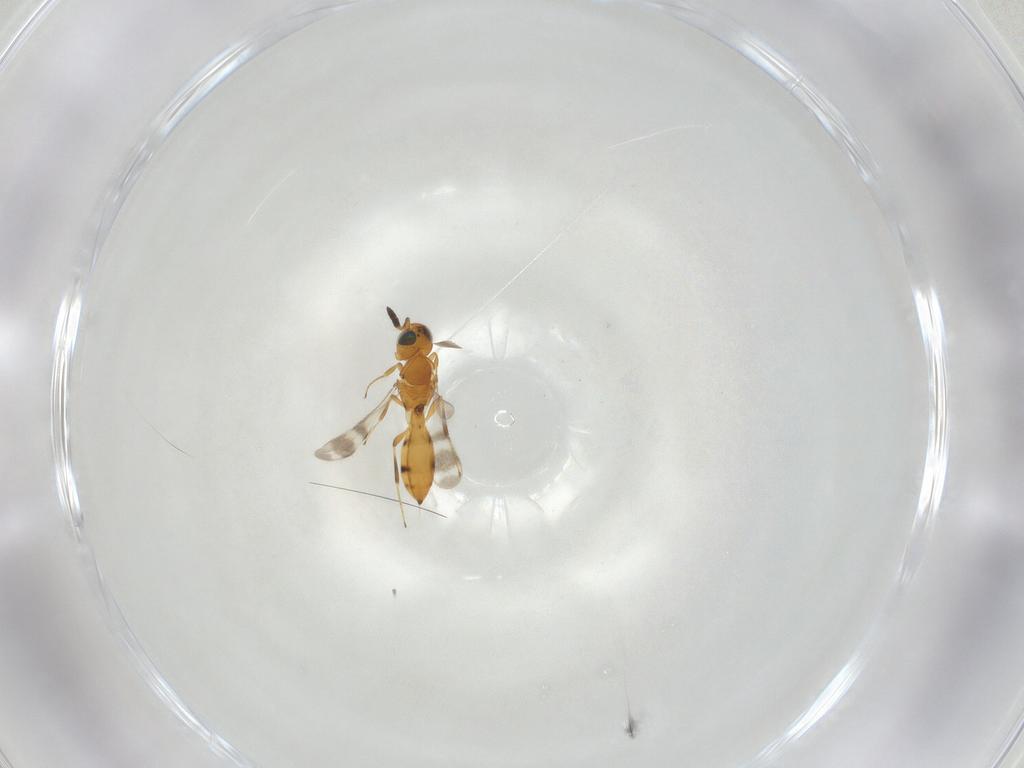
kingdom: Animalia
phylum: Arthropoda
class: Insecta
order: Hymenoptera
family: Scelionidae
